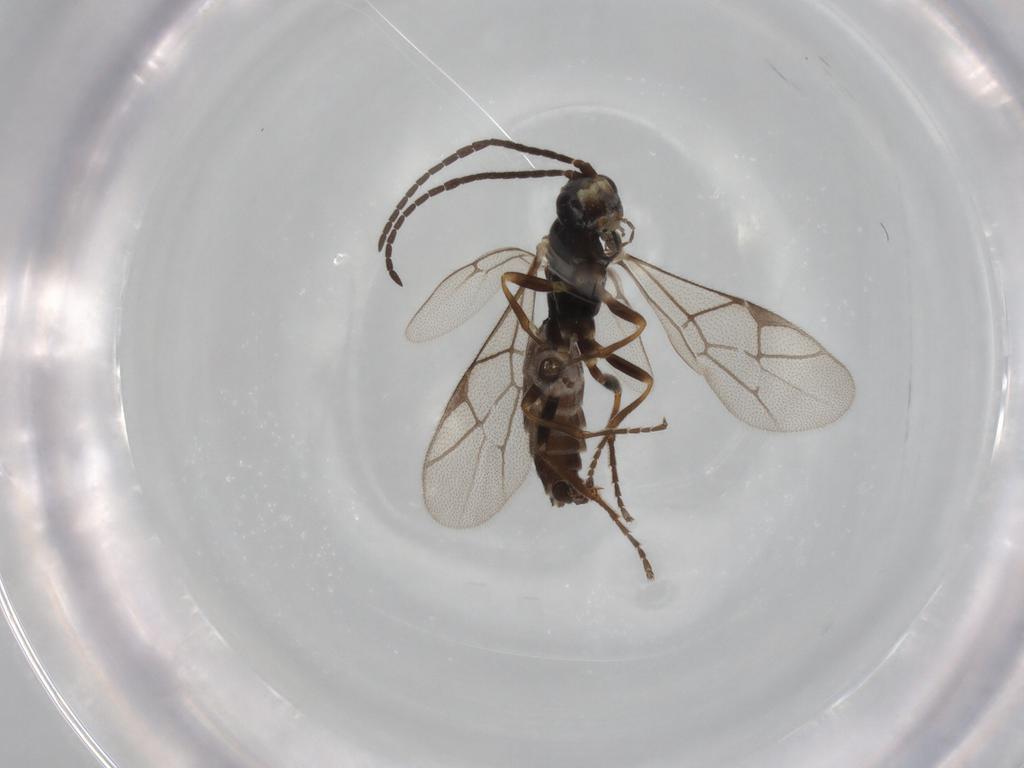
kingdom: Animalia
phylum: Arthropoda
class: Insecta
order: Hymenoptera
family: Ichneumonidae
